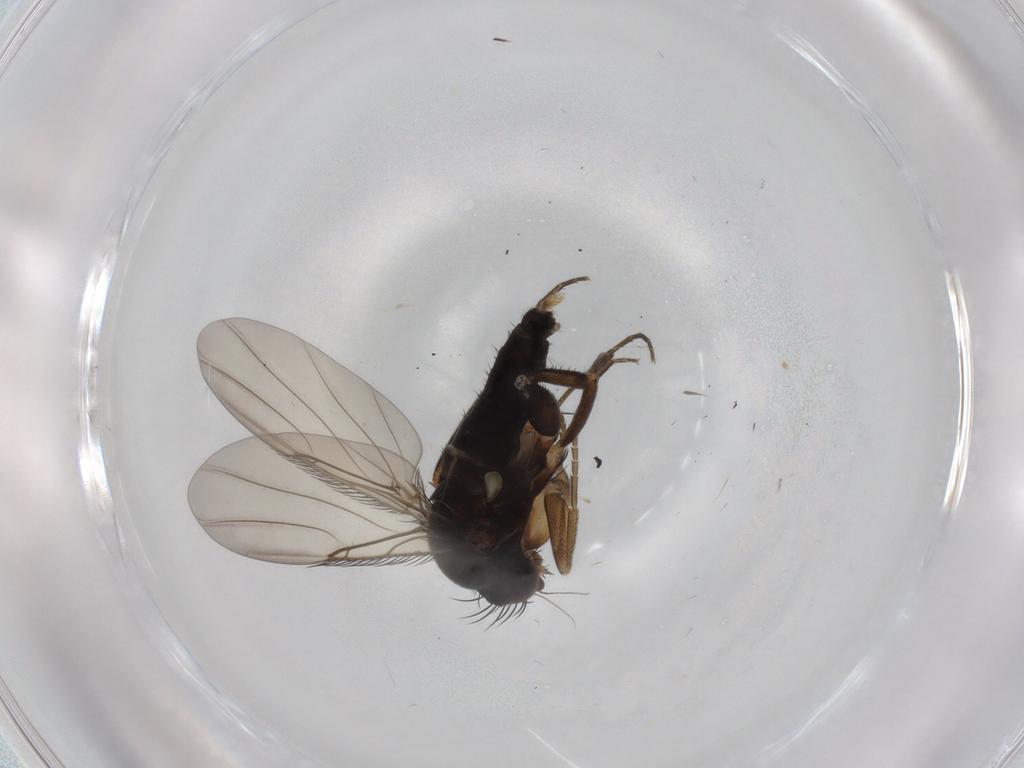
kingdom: Animalia
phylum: Arthropoda
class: Insecta
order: Diptera
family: Phoridae
